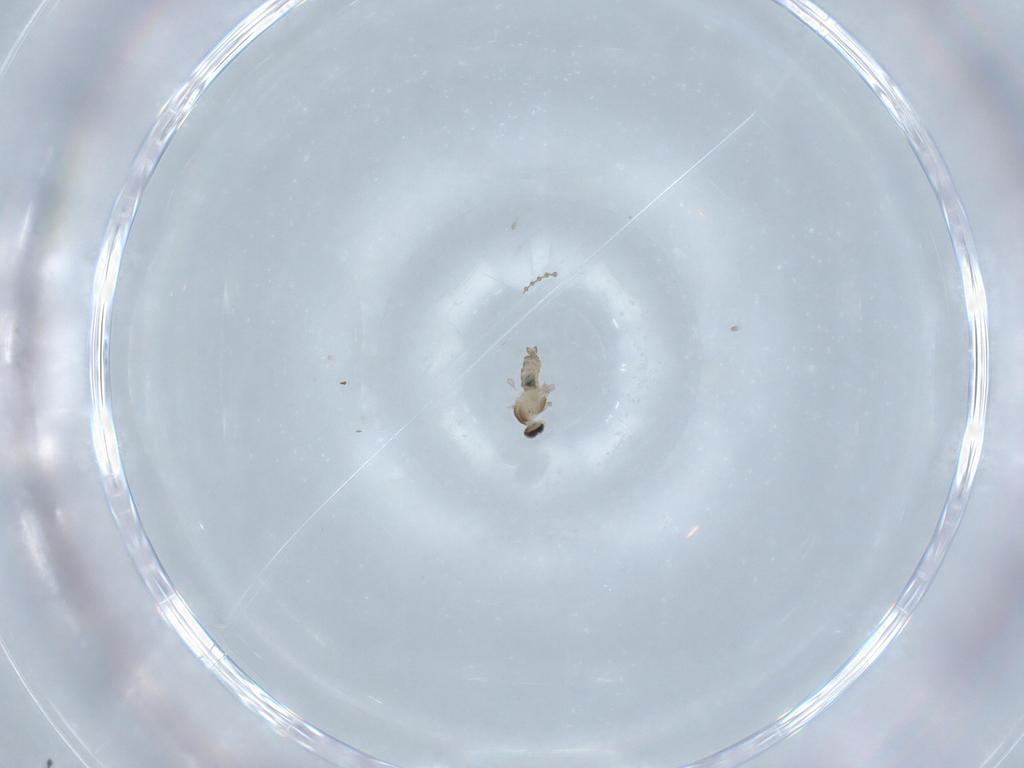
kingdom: Animalia
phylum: Arthropoda
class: Insecta
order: Diptera
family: Cecidomyiidae
